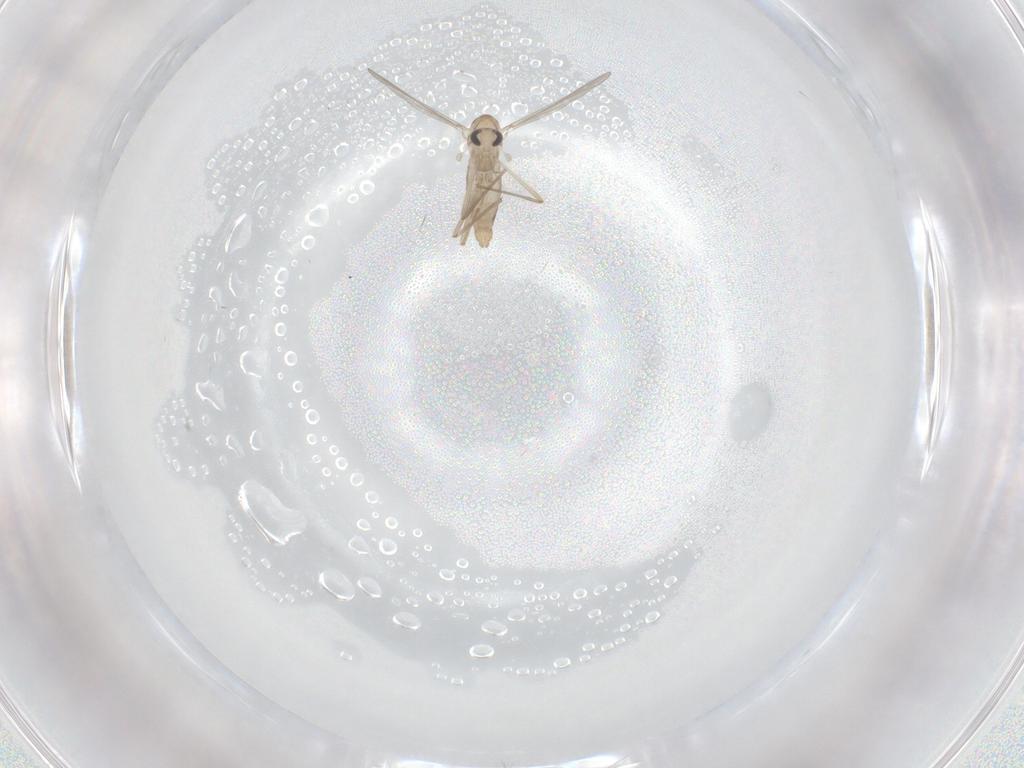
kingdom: Animalia
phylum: Arthropoda
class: Insecta
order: Diptera
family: Chironomidae
